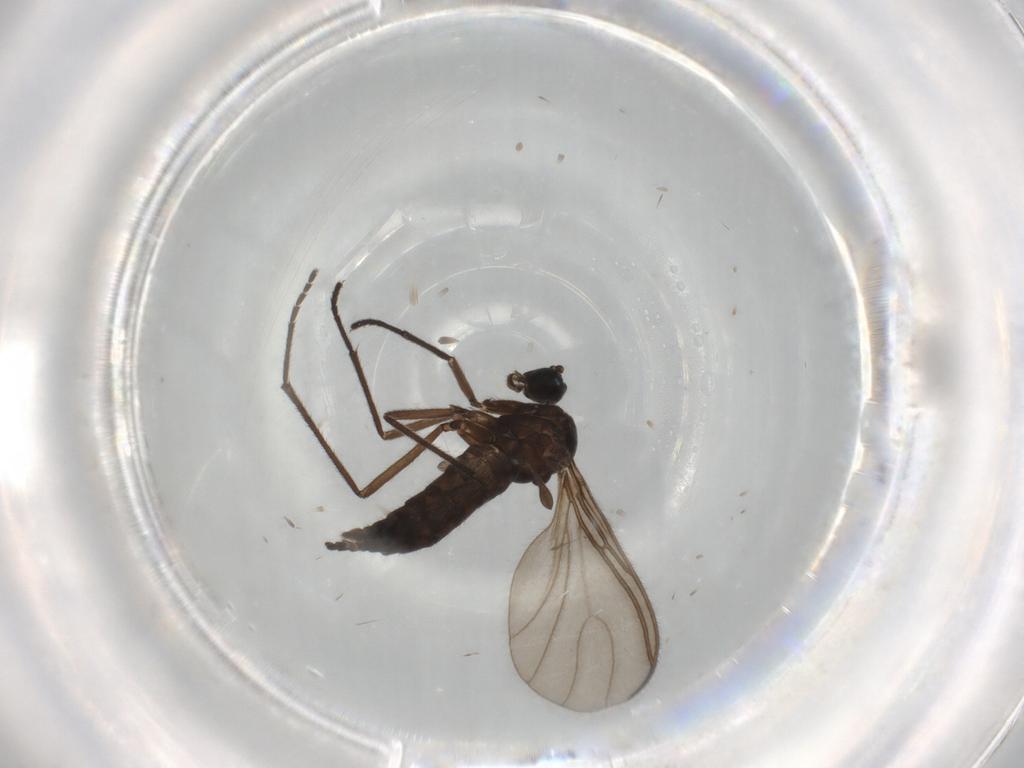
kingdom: Animalia
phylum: Arthropoda
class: Insecta
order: Diptera
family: Sciaridae
